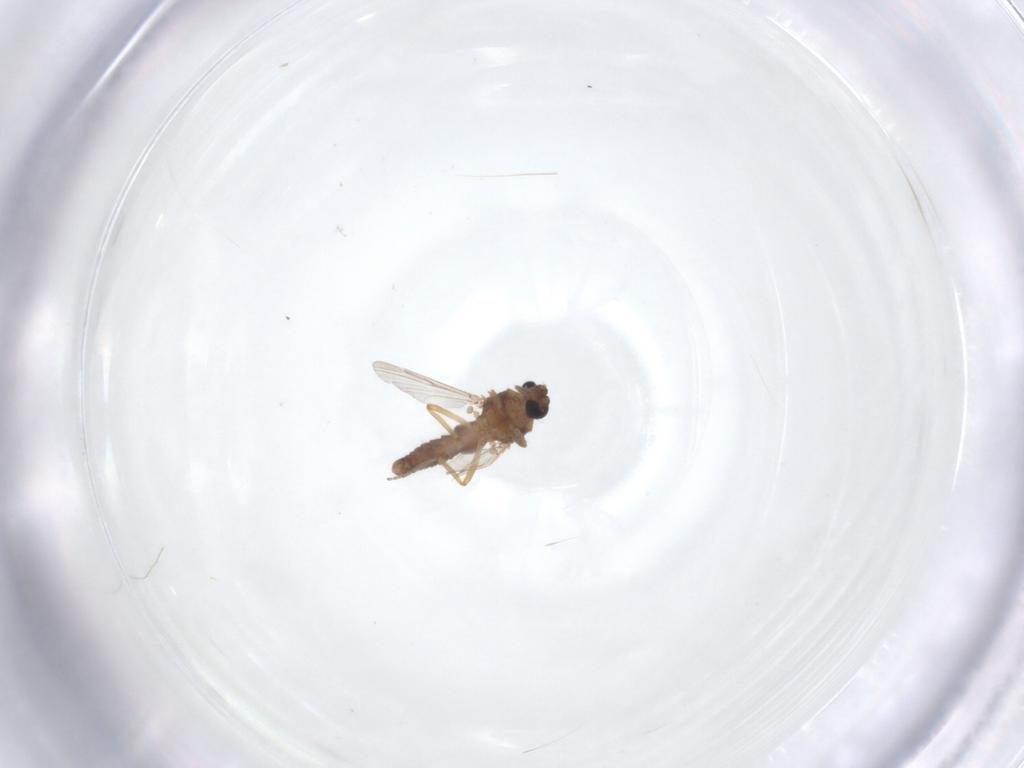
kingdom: Animalia
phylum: Arthropoda
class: Insecta
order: Diptera
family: Ceratopogonidae
